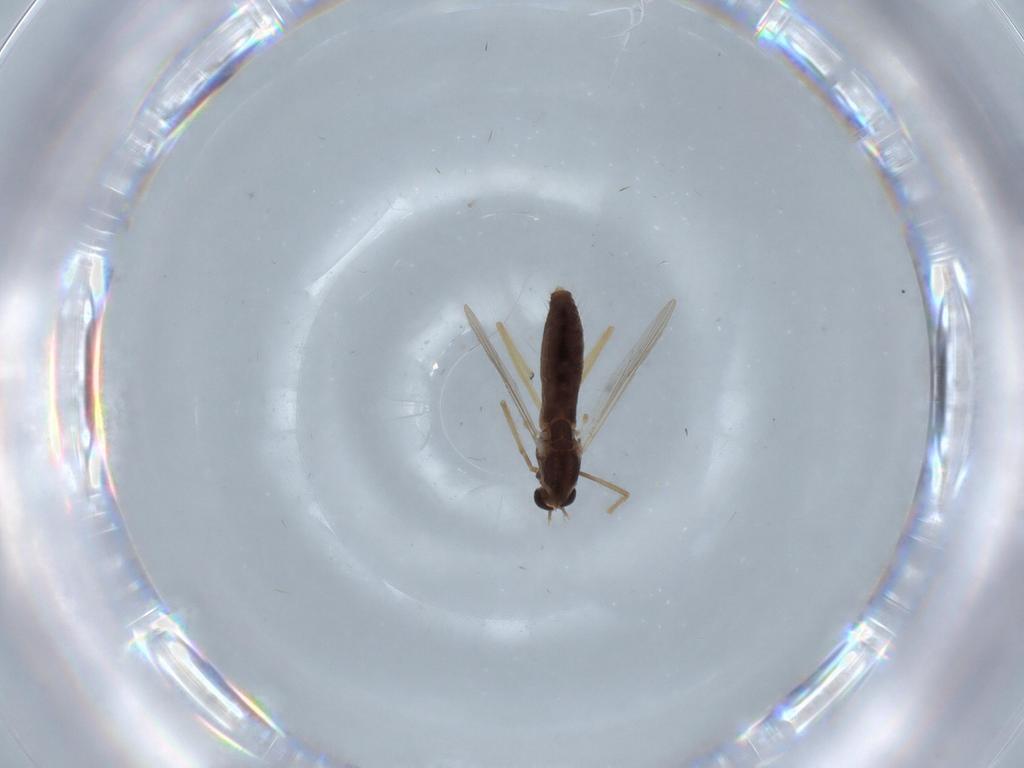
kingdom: Animalia
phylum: Arthropoda
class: Insecta
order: Diptera
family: Chironomidae
